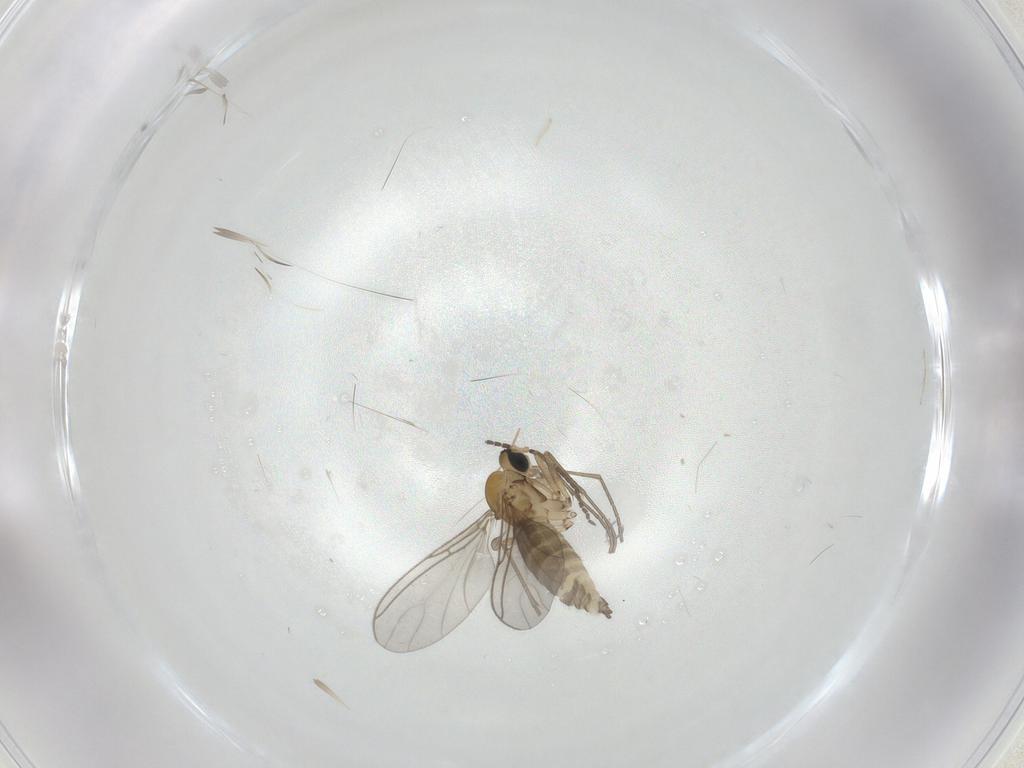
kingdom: Animalia
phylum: Arthropoda
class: Insecta
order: Diptera
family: Sciaridae
